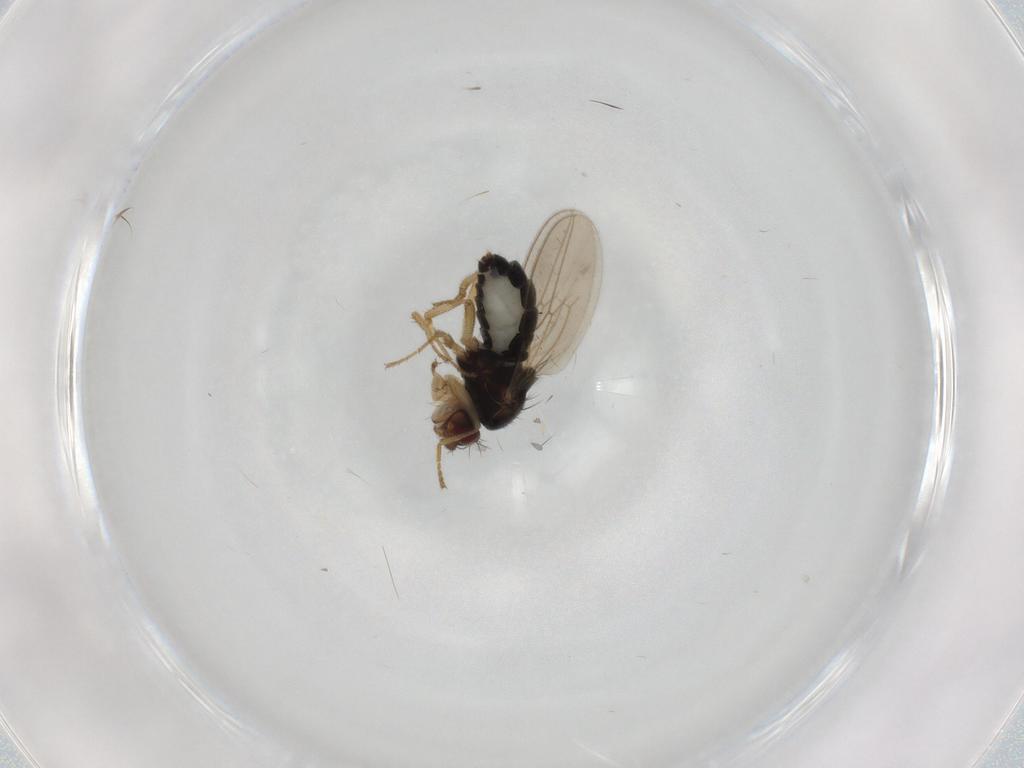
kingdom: Animalia
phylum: Arthropoda
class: Insecta
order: Diptera
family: Sphaeroceridae
